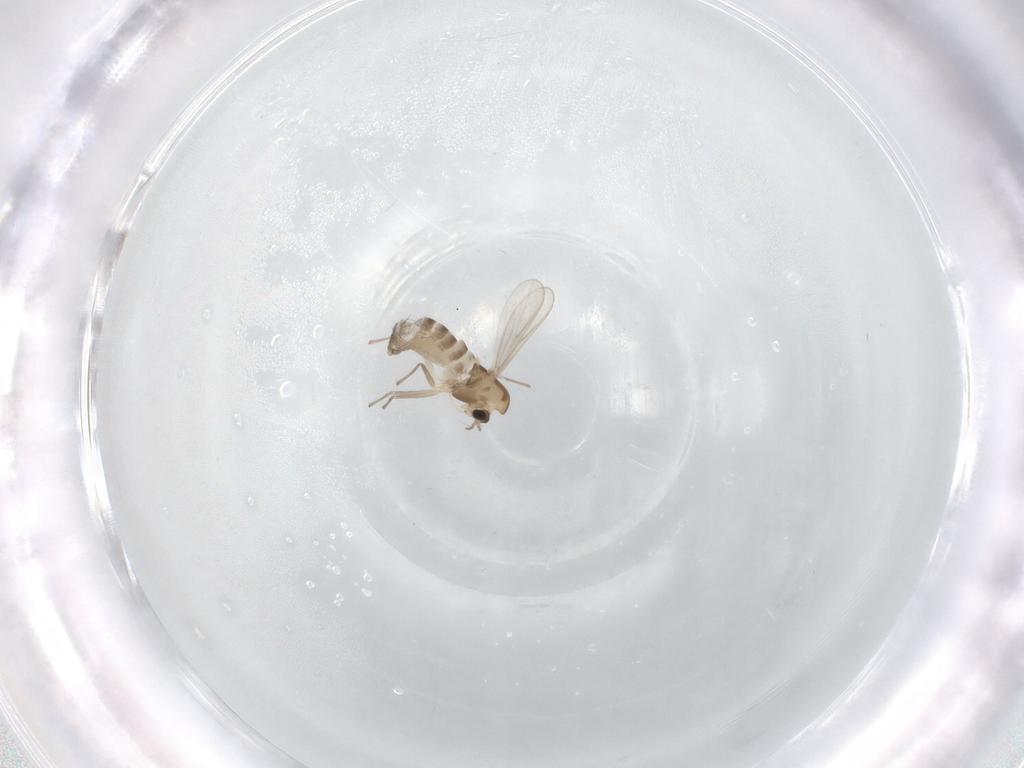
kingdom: Animalia
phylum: Arthropoda
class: Insecta
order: Diptera
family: Chironomidae
